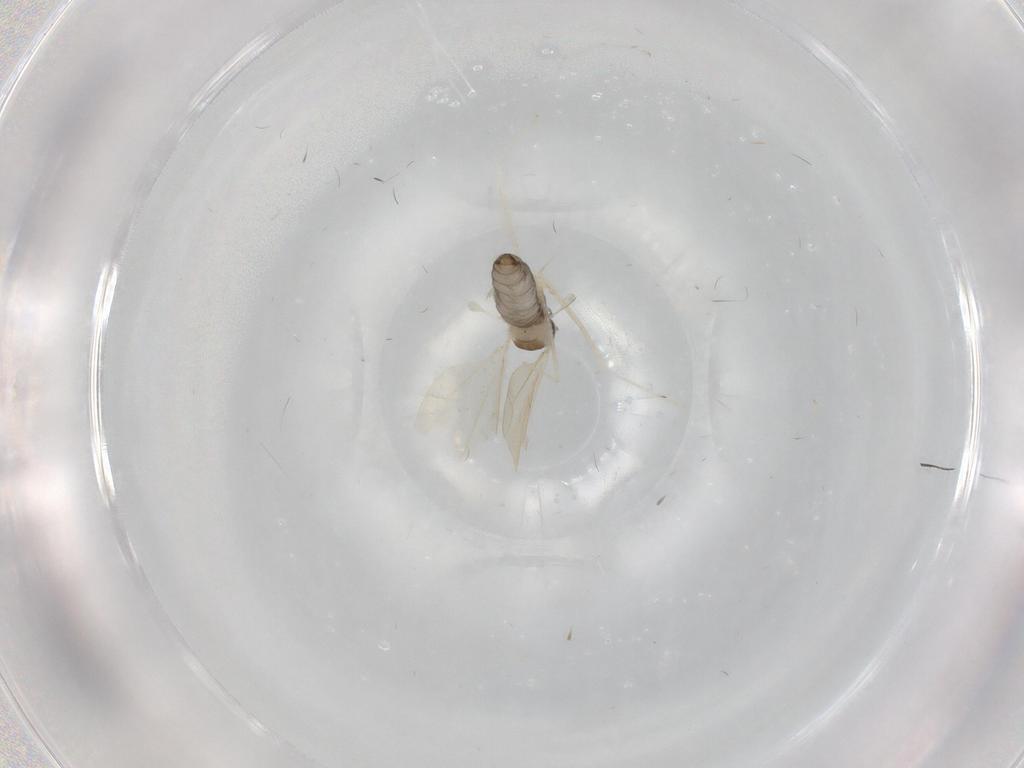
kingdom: Animalia
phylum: Arthropoda
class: Insecta
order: Diptera
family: Cecidomyiidae
